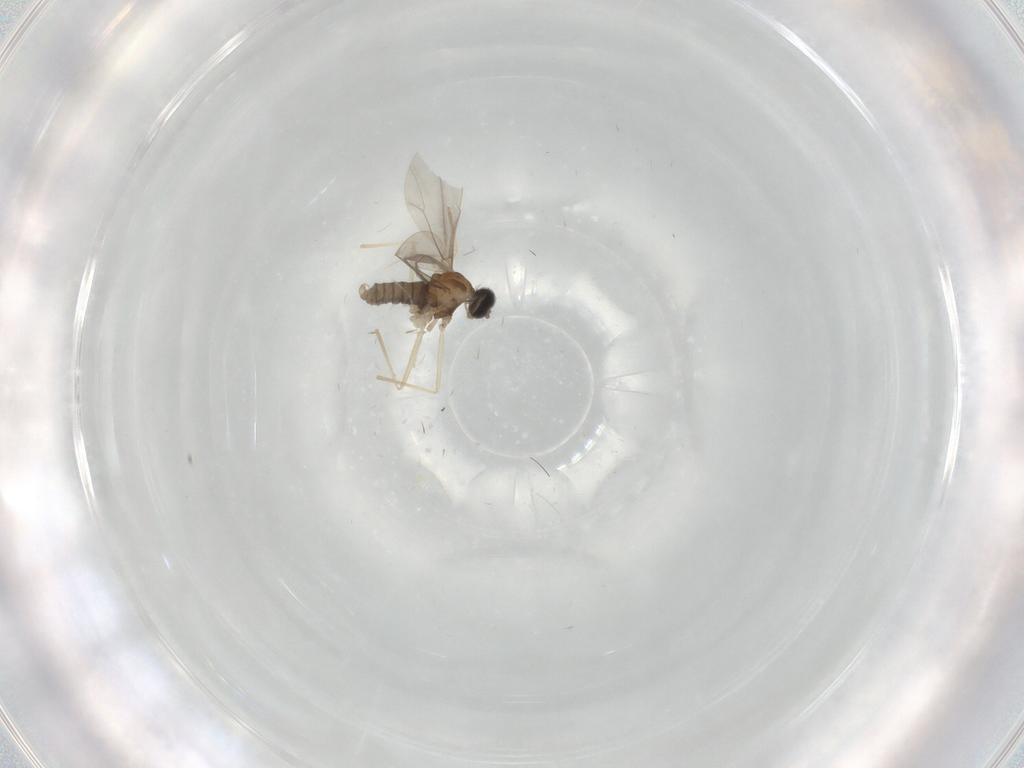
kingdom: Animalia
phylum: Arthropoda
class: Insecta
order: Diptera
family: Cecidomyiidae
